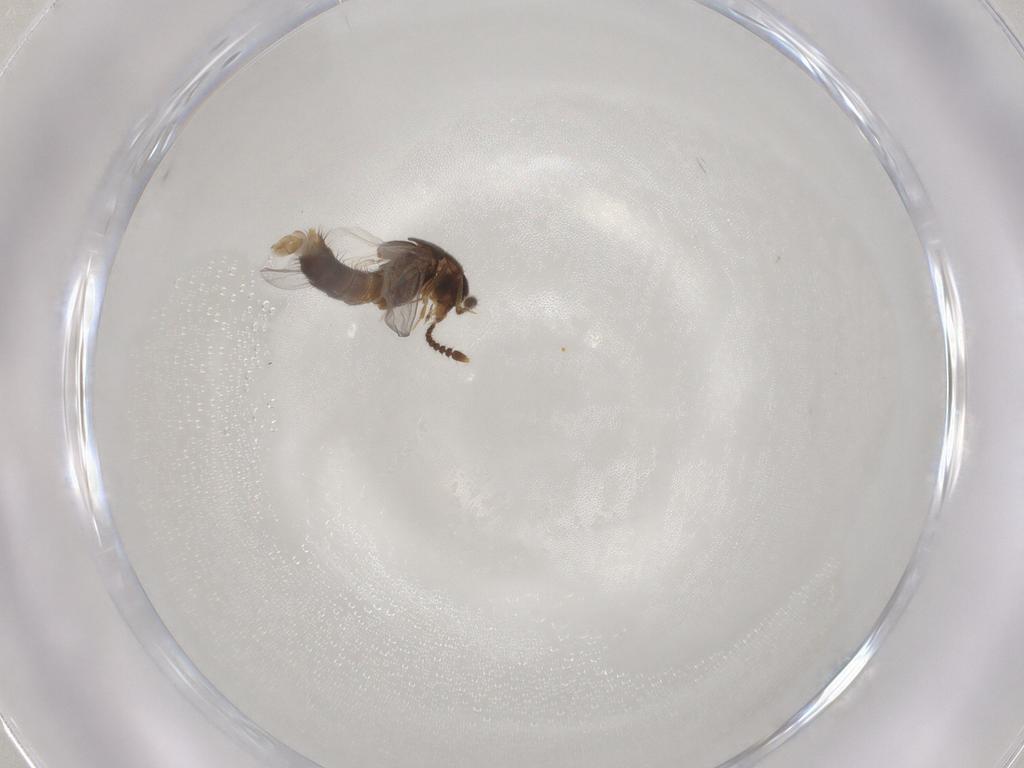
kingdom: Animalia
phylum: Arthropoda
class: Insecta
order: Coleoptera
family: Staphylinidae
